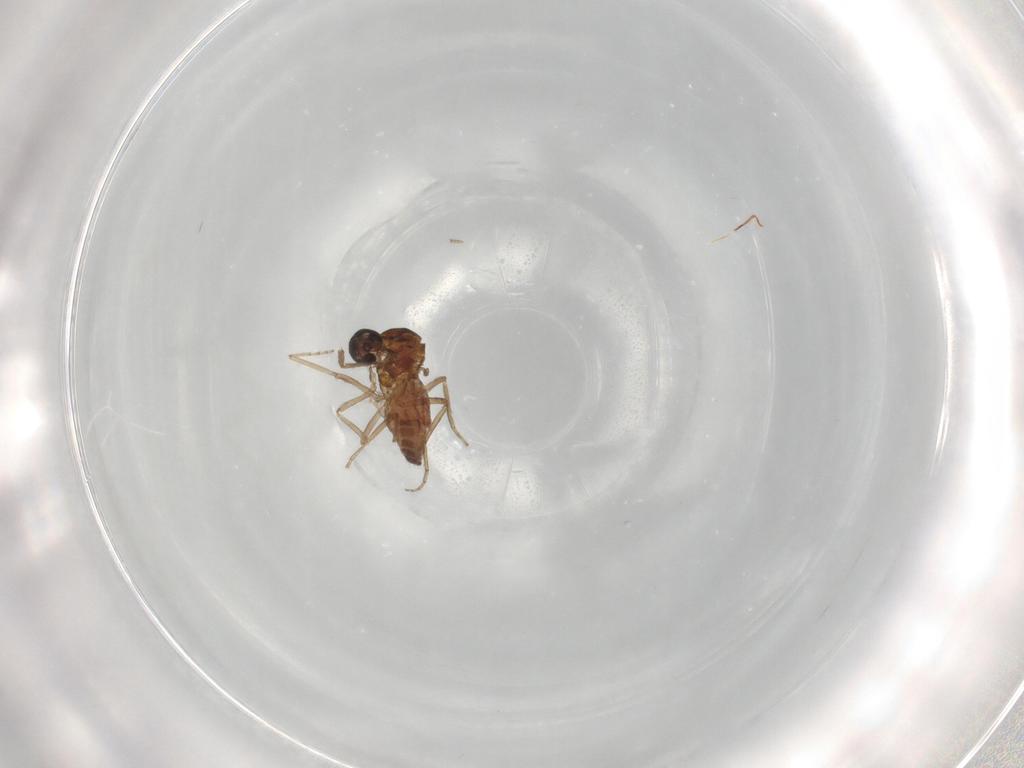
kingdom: Animalia
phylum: Arthropoda
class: Insecta
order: Diptera
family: Ceratopogonidae
